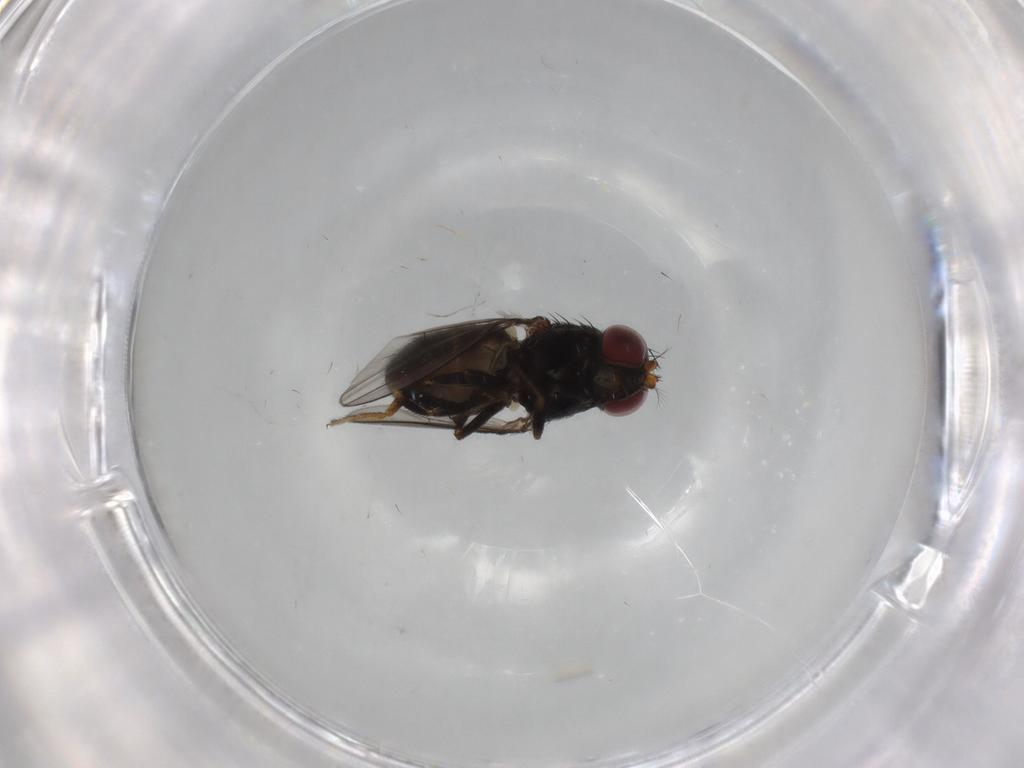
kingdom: Animalia
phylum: Arthropoda
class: Insecta
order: Diptera
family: Ephydridae
